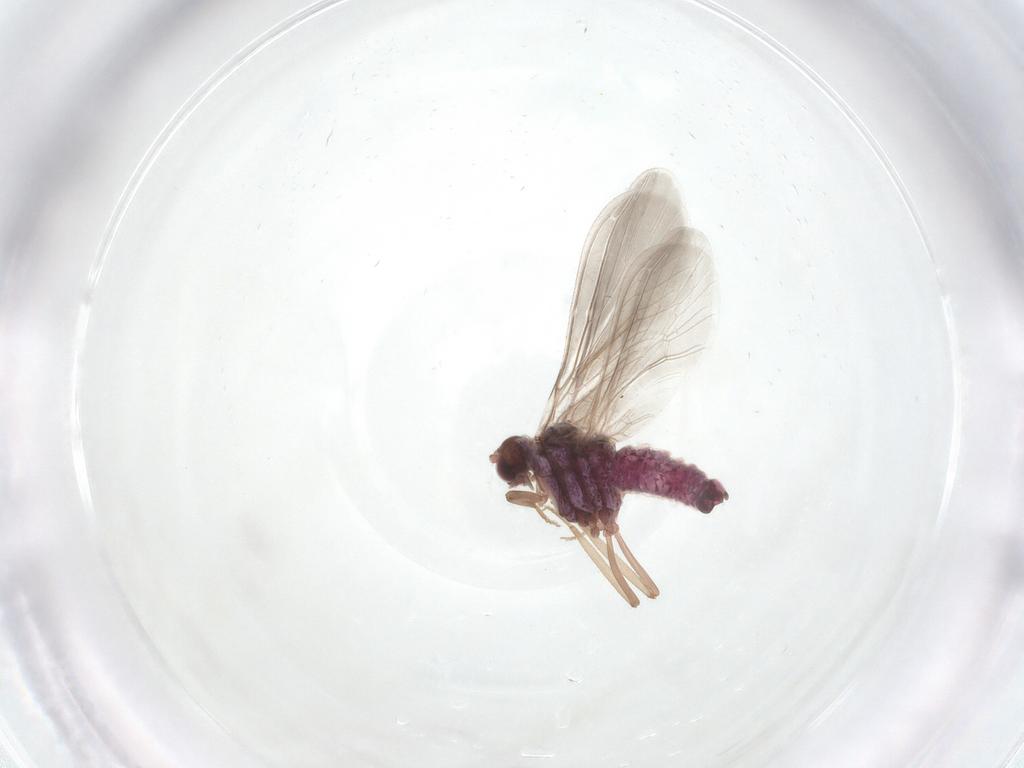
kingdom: Animalia
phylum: Arthropoda
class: Insecta
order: Neuroptera
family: Coniopterygidae
